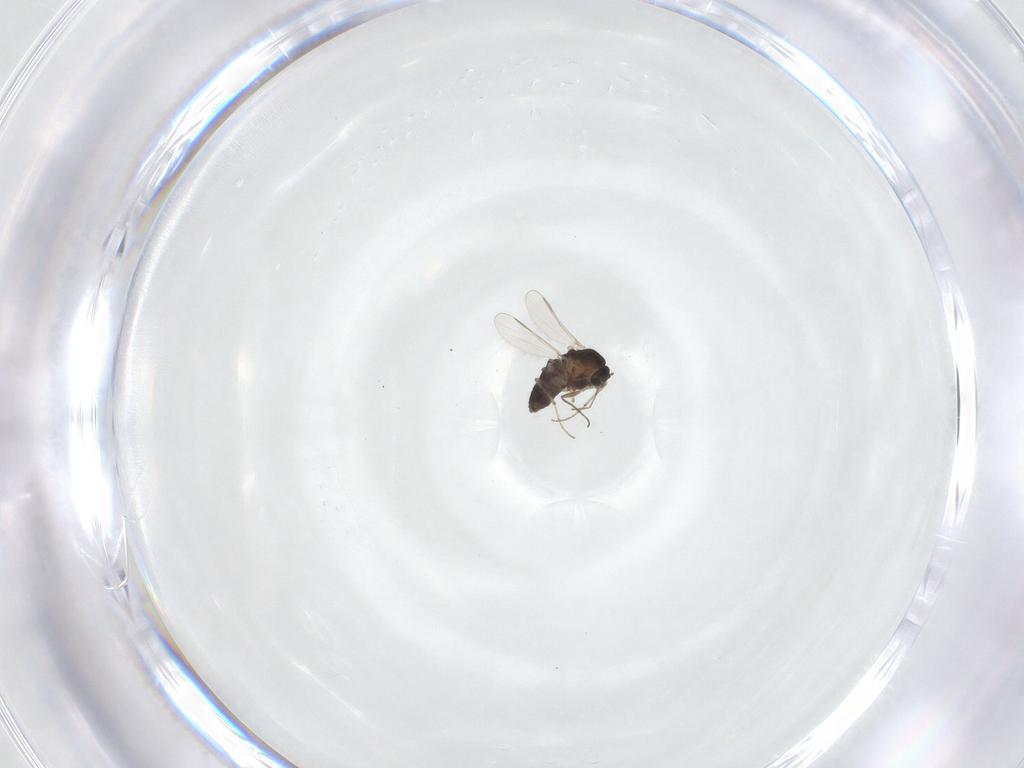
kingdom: Animalia
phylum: Arthropoda
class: Insecta
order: Diptera
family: Chironomidae
